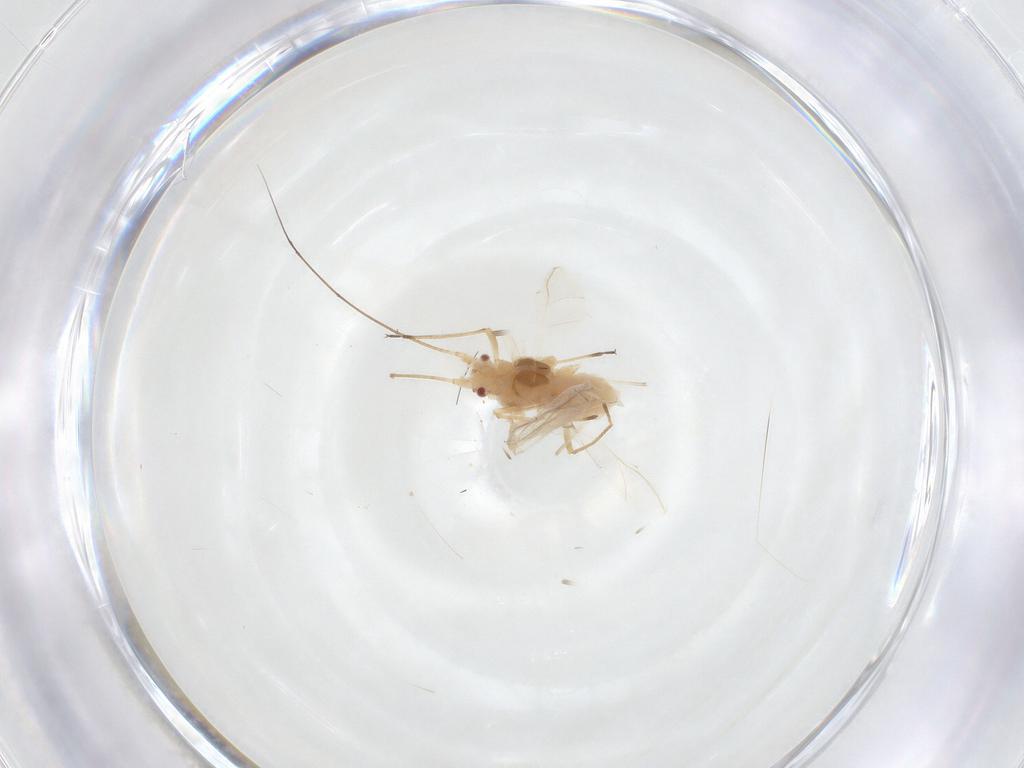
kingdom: Animalia
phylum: Arthropoda
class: Insecta
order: Hemiptera
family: Aphididae
